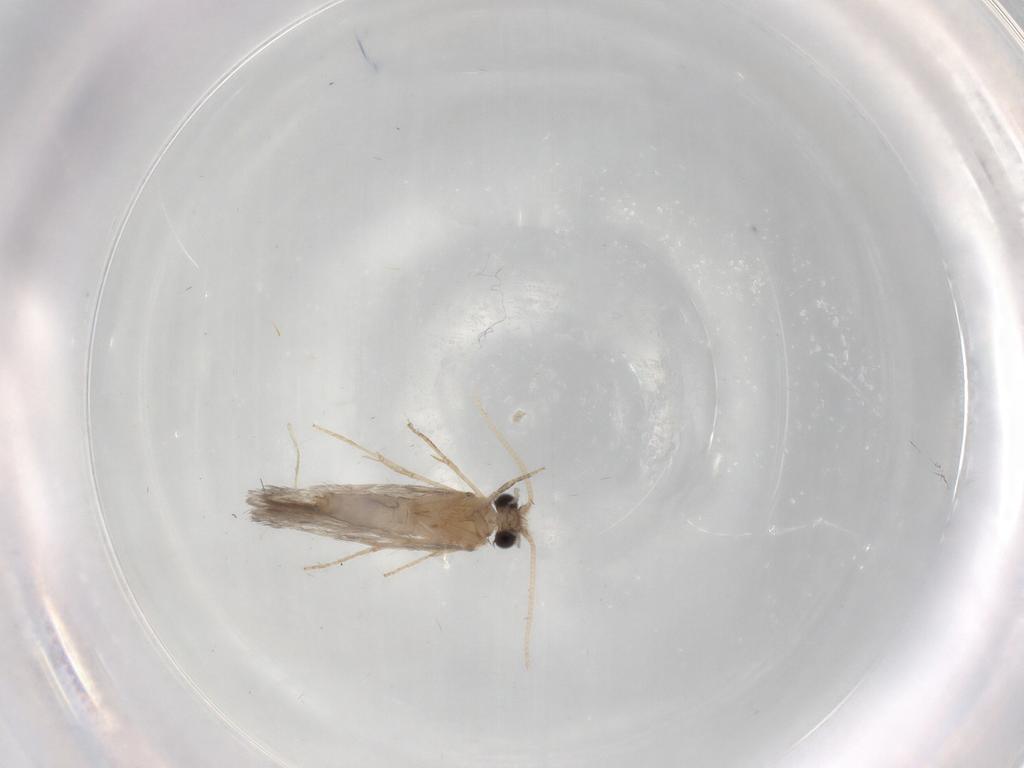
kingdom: Animalia
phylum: Arthropoda
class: Insecta
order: Trichoptera
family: Hydroptilidae
